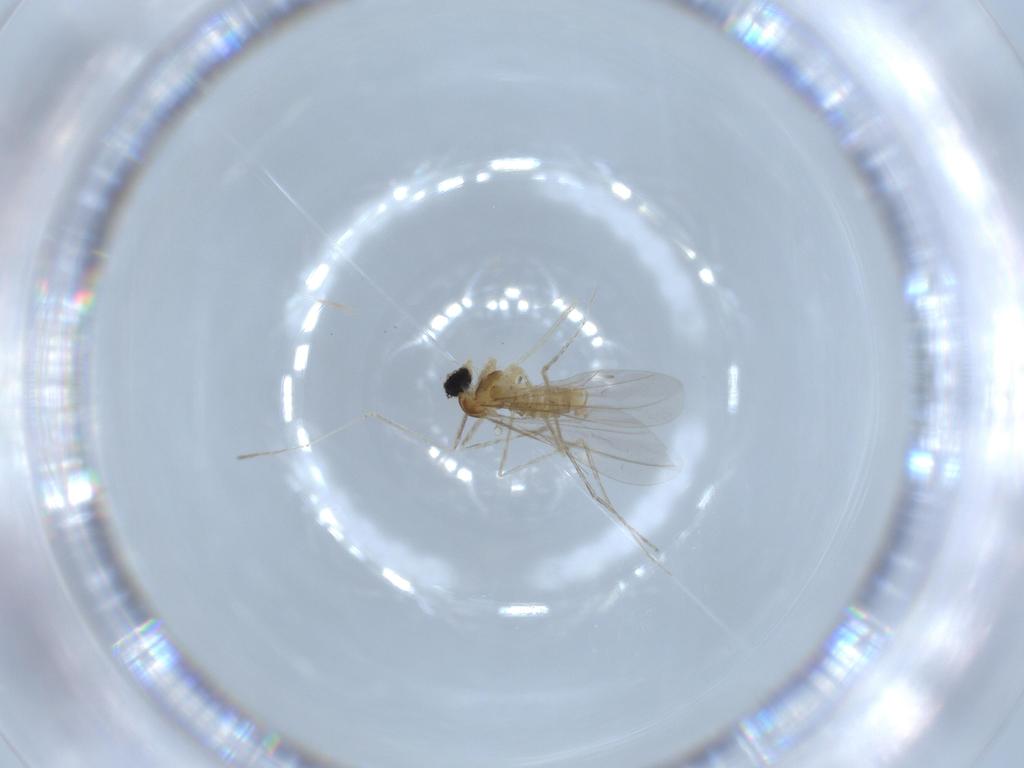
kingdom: Animalia
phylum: Arthropoda
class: Insecta
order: Diptera
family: Cecidomyiidae
